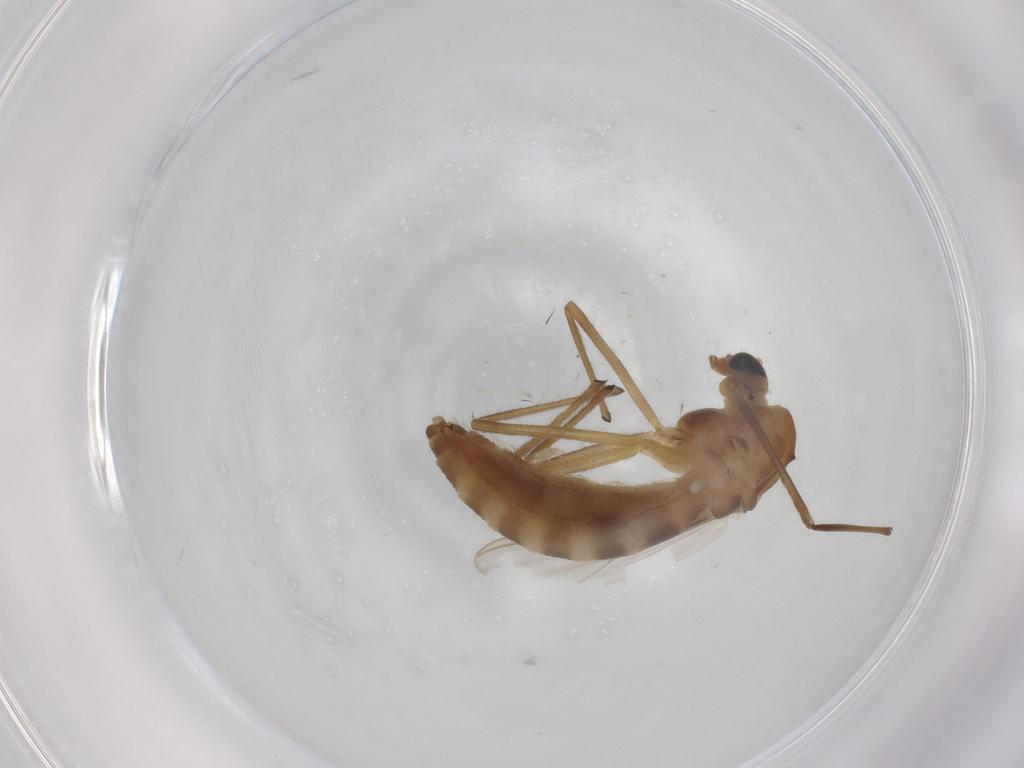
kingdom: Animalia
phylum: Arthropoda
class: Insecta
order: Diptera
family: Chironomidae
